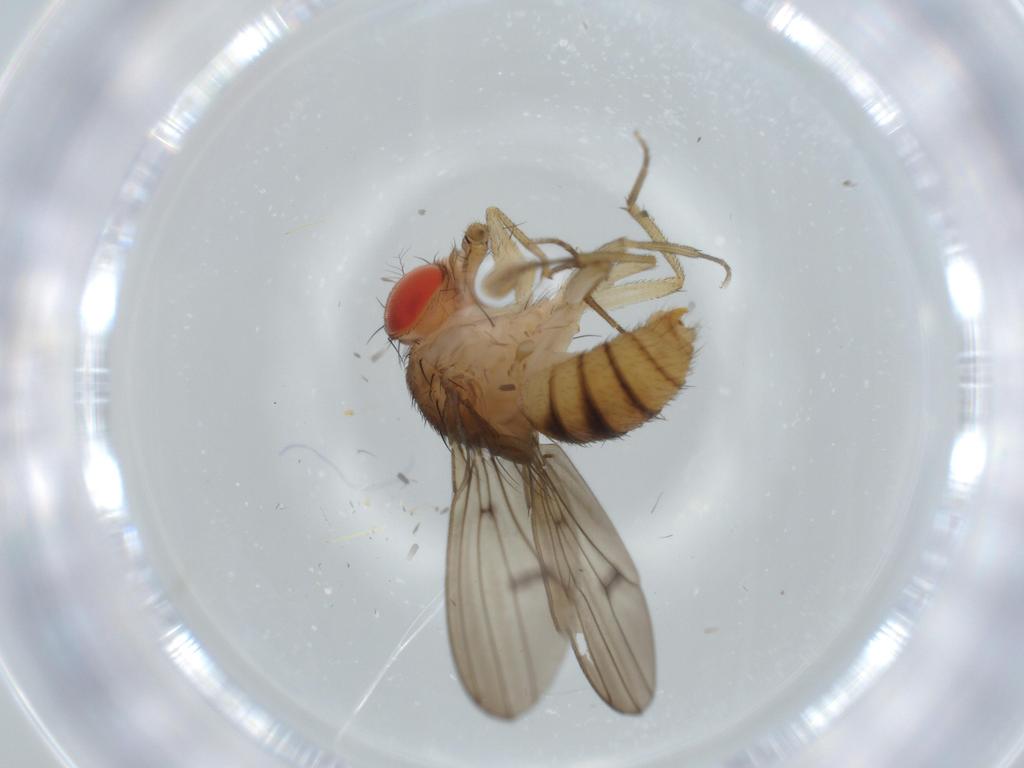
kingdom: Animalia
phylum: Arthropoda
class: Insecta
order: Diptera
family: Drosophilidae
